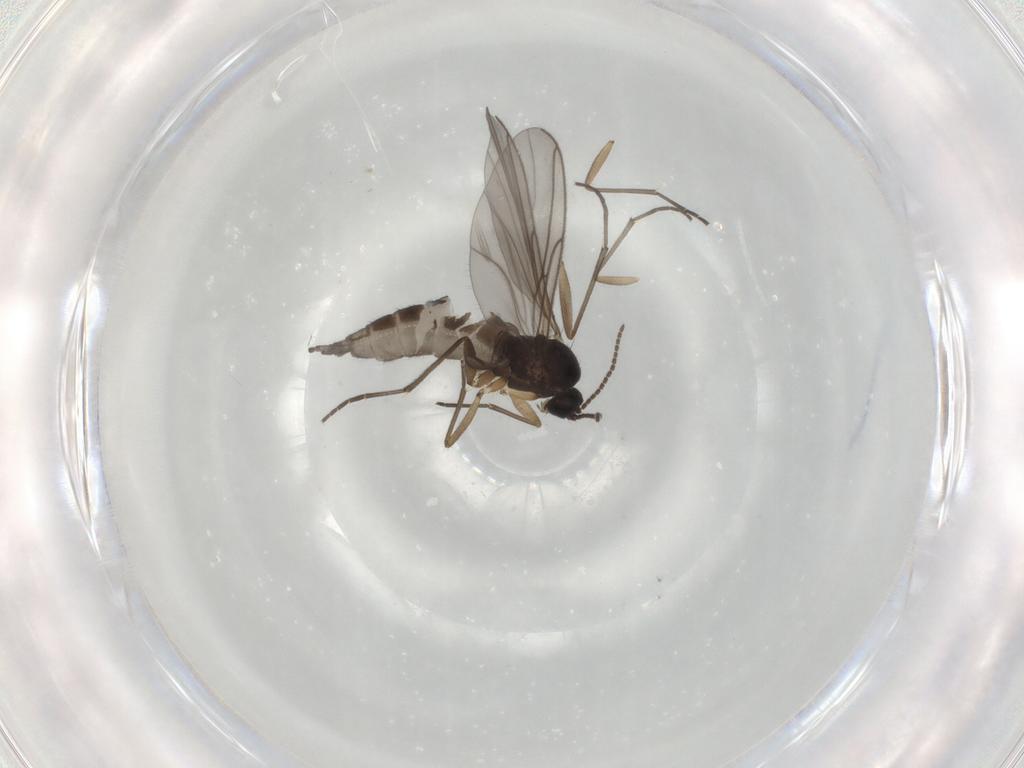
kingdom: Animalia
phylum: Arthropoda
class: Insecta
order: Diptera
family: Sciaridae
